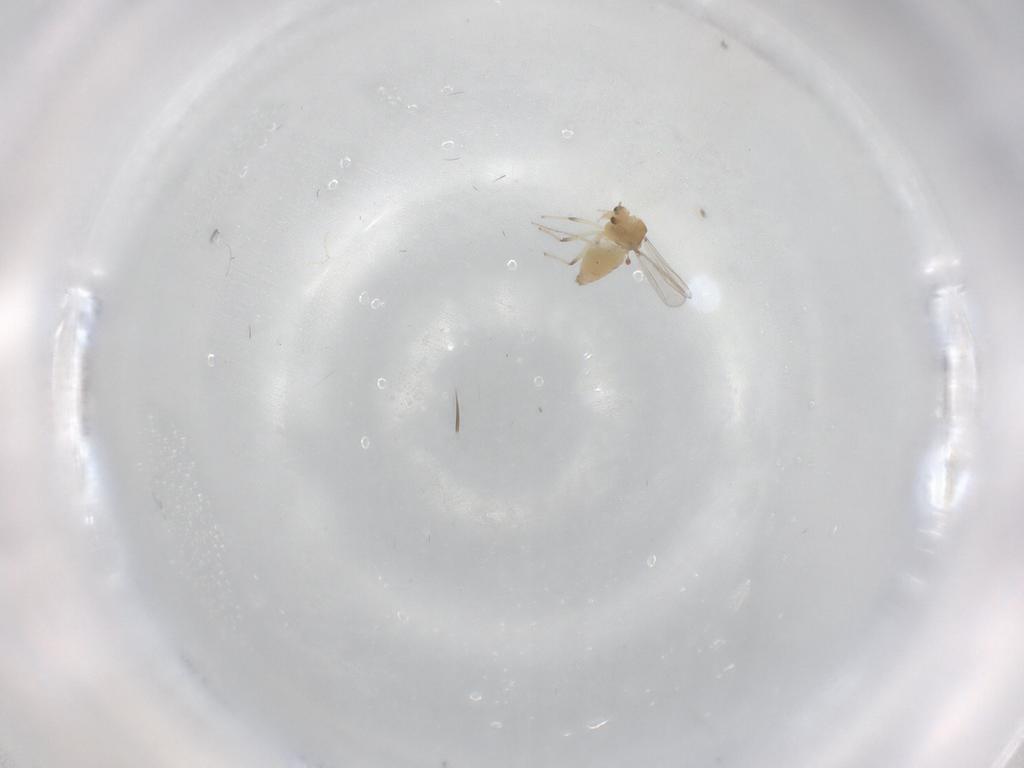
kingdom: Animalia
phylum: Arthropoda
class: Insecta
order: Diptera
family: Chironomidae
